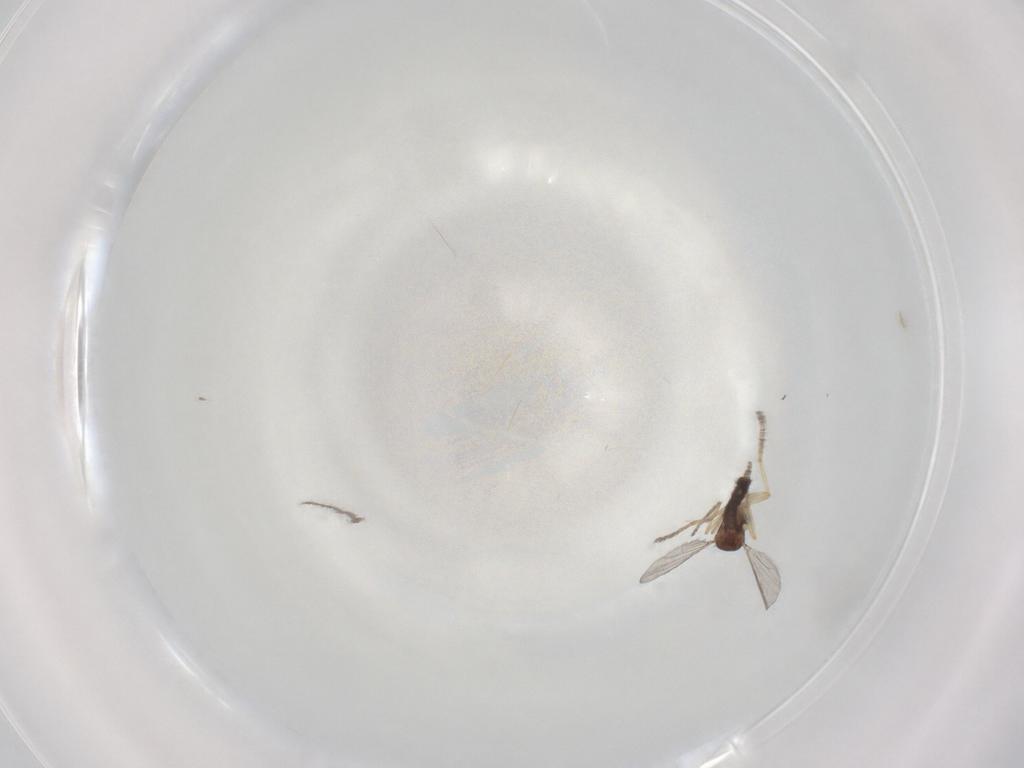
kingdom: Animalia
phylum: Arthropoda
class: Insecta
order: Diptera
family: Ceratopogonidae
